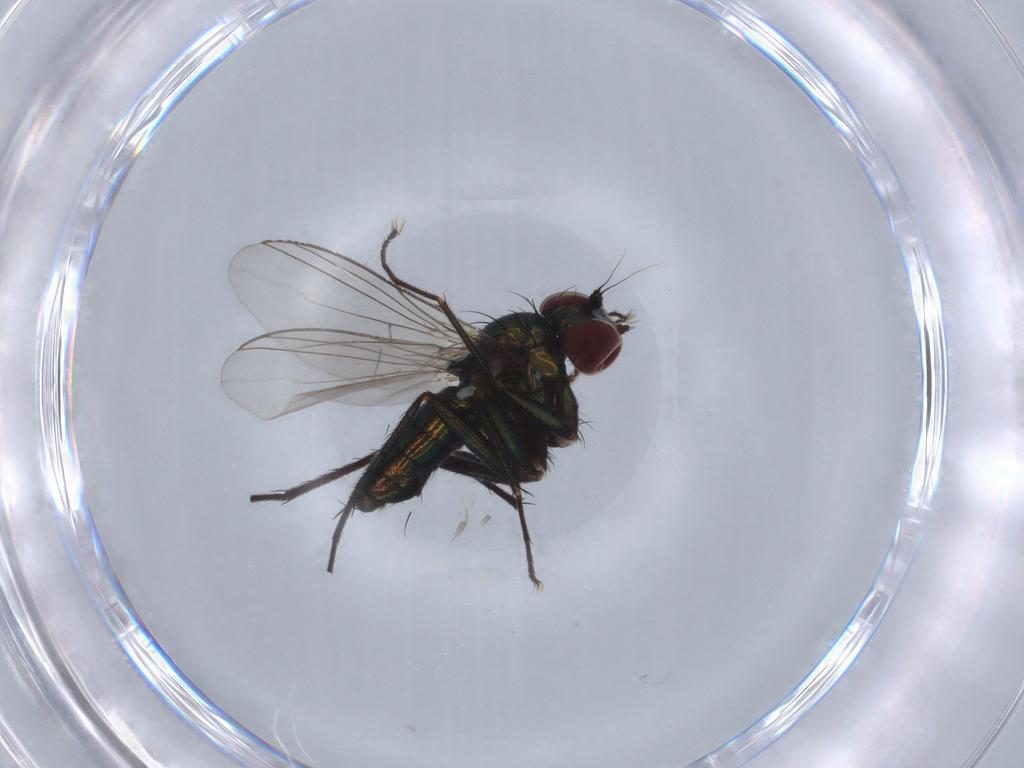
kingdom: Animalia
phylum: Arthropoda
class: Insecta
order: Diptera
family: Dolichopodidae
